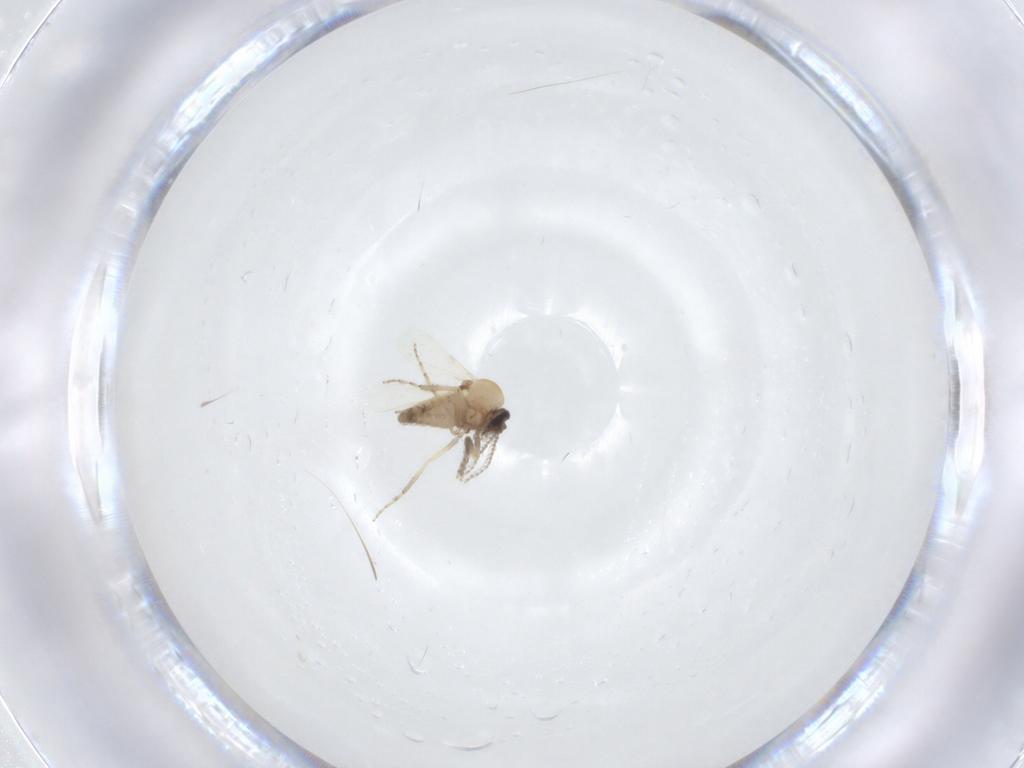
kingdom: Animalia
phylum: Arthropoda
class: Insecta
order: Diptera
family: Ceratopogonidae
